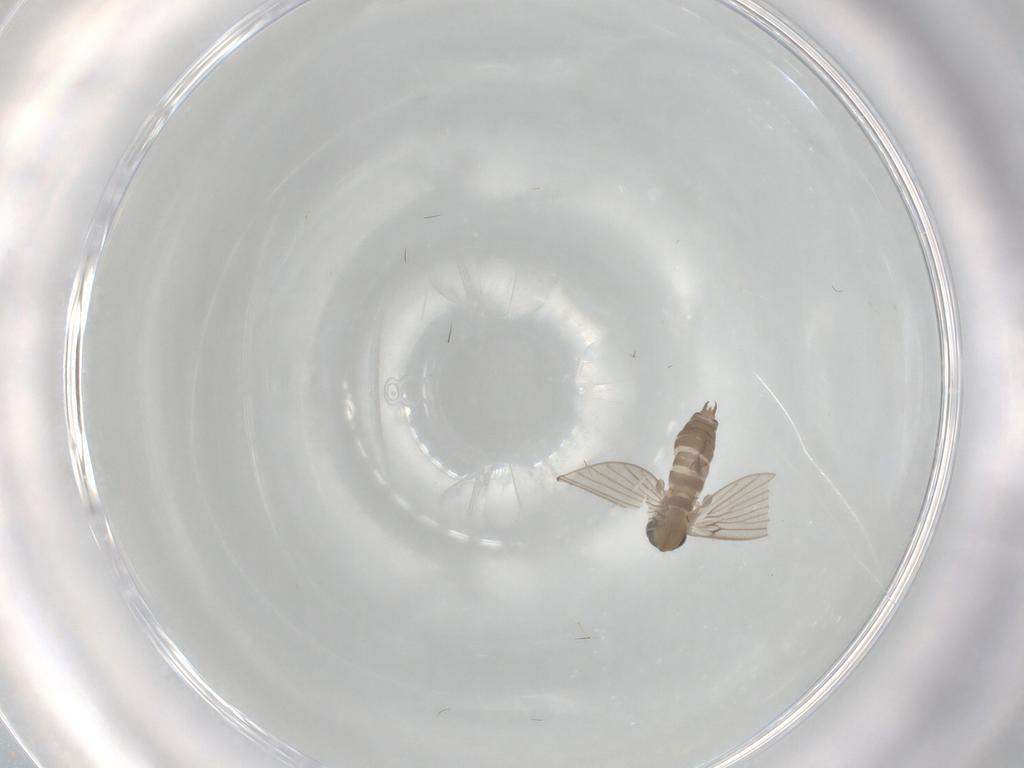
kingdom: Animalia
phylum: Arthropoda
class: Insecta
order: Diptera
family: Psychodidae
